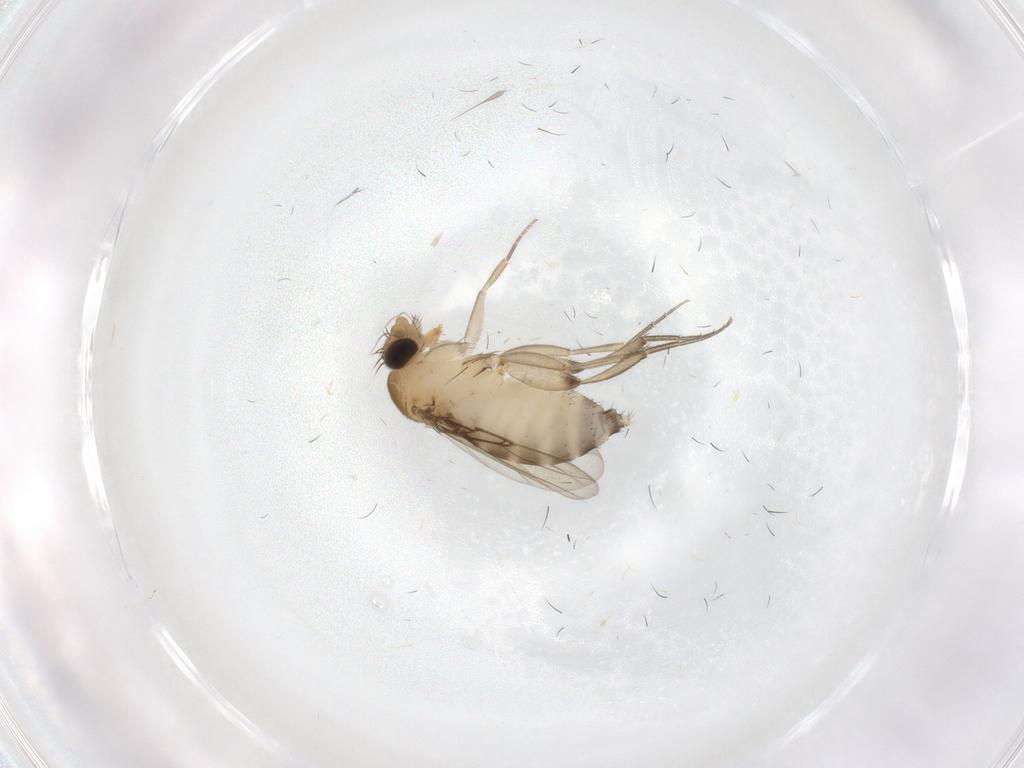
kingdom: Animalia
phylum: Arthropoda
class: Insecta
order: Diptera
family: Phoridae
